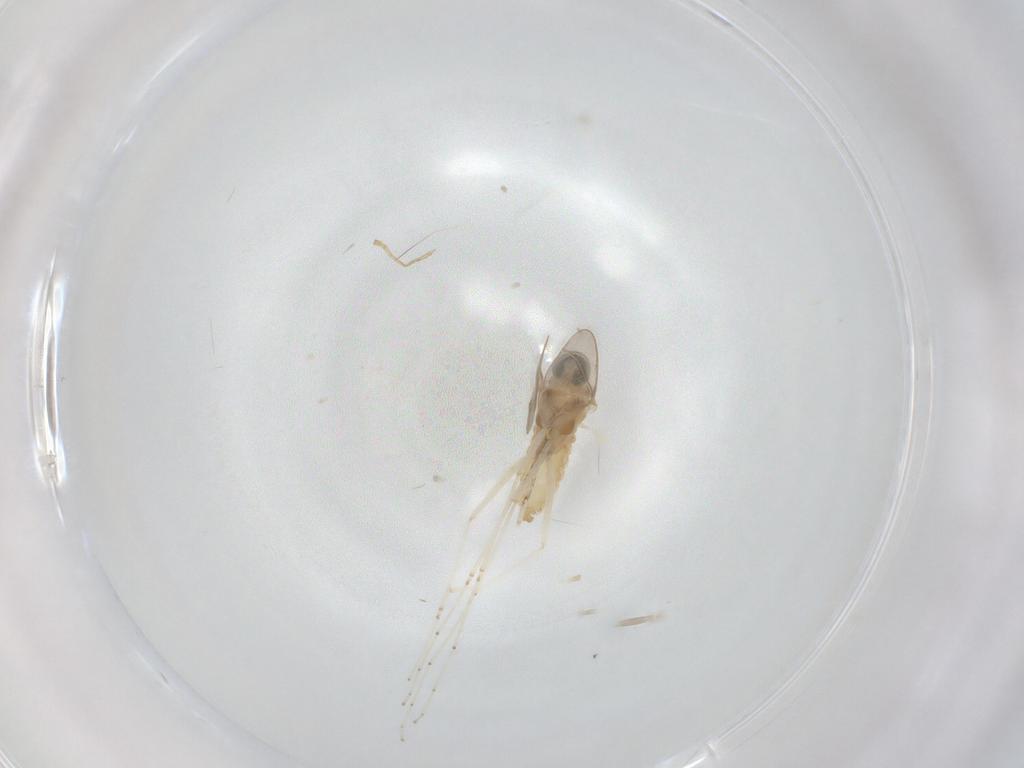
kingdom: Animalia
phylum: Arthropoda
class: Insecta
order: Diptera
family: Cecidomyiidae
